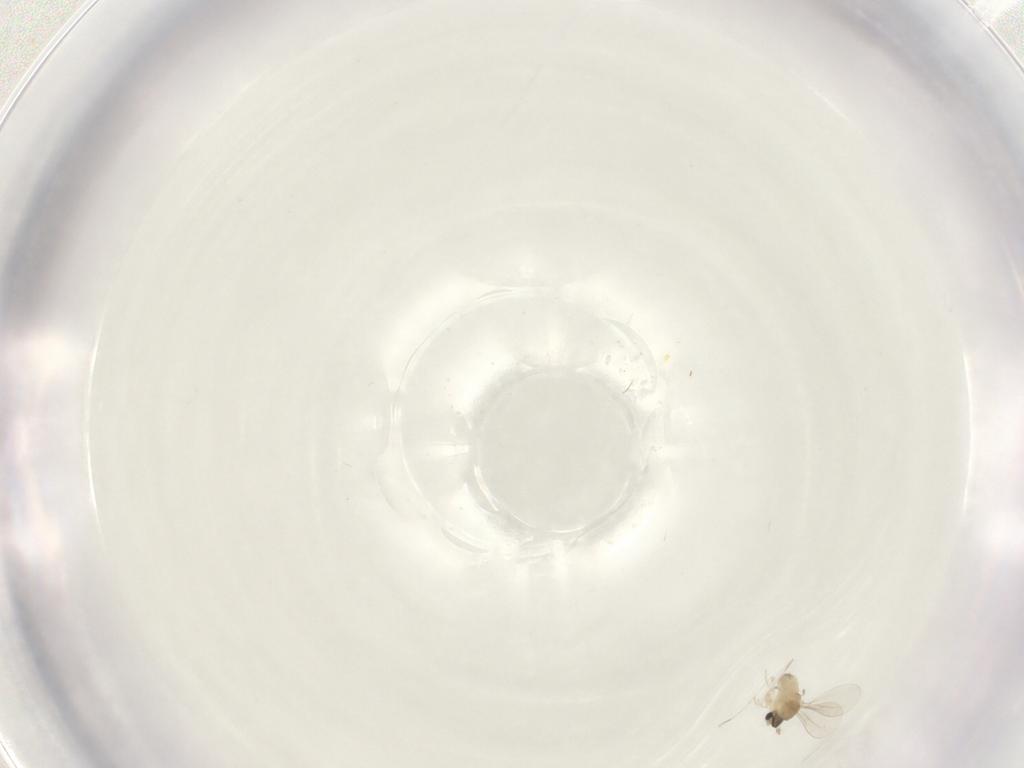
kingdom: Animalia
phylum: Arthropoda
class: Insecta
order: Diptera
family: Cecidomyiidae
